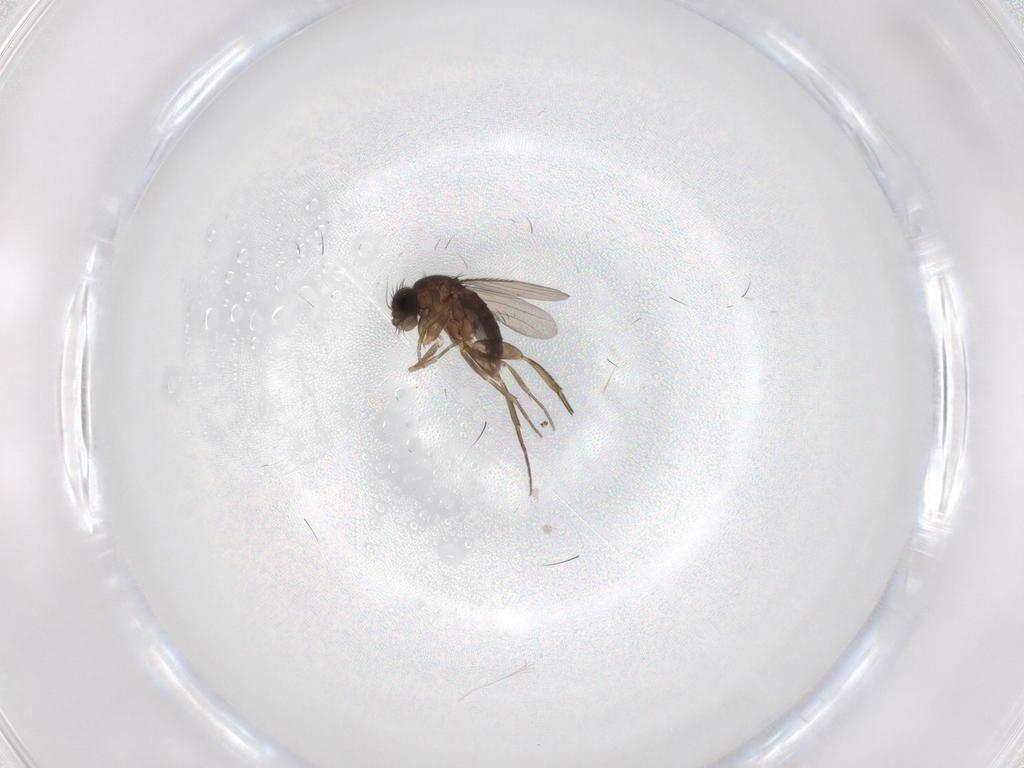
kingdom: Animalia
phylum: Arthropoda
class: Insecta
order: Diptera
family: Phoridae
